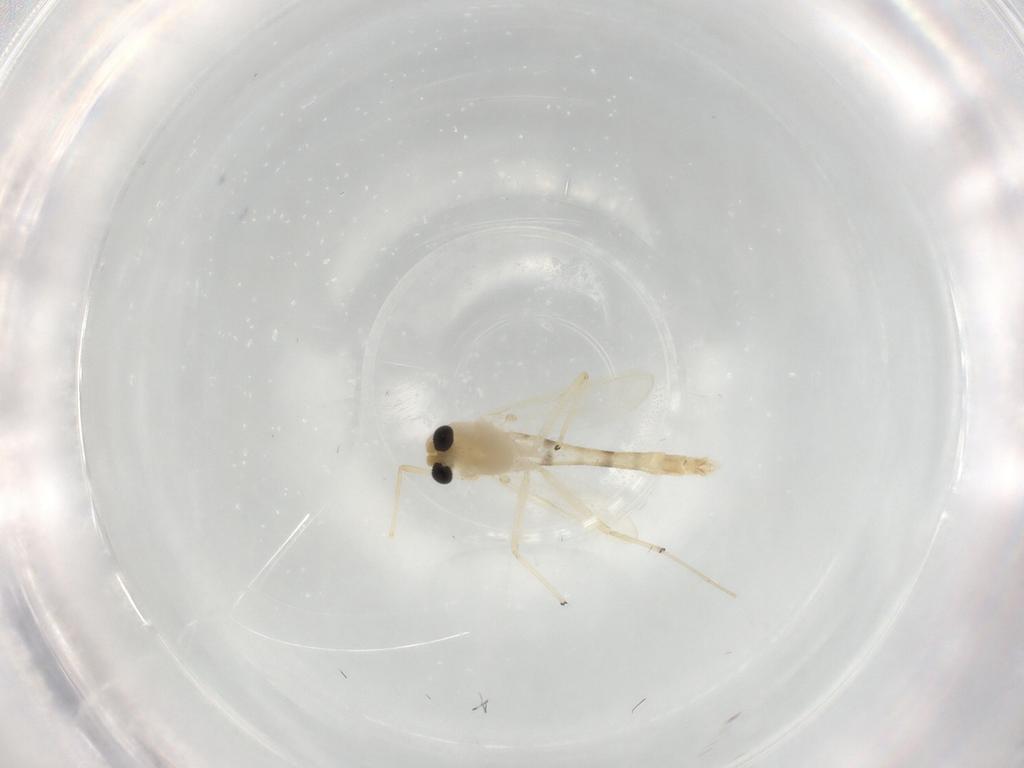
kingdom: Animalia
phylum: Arthropoda
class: Insecta
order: Diptera
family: Chironomidae
